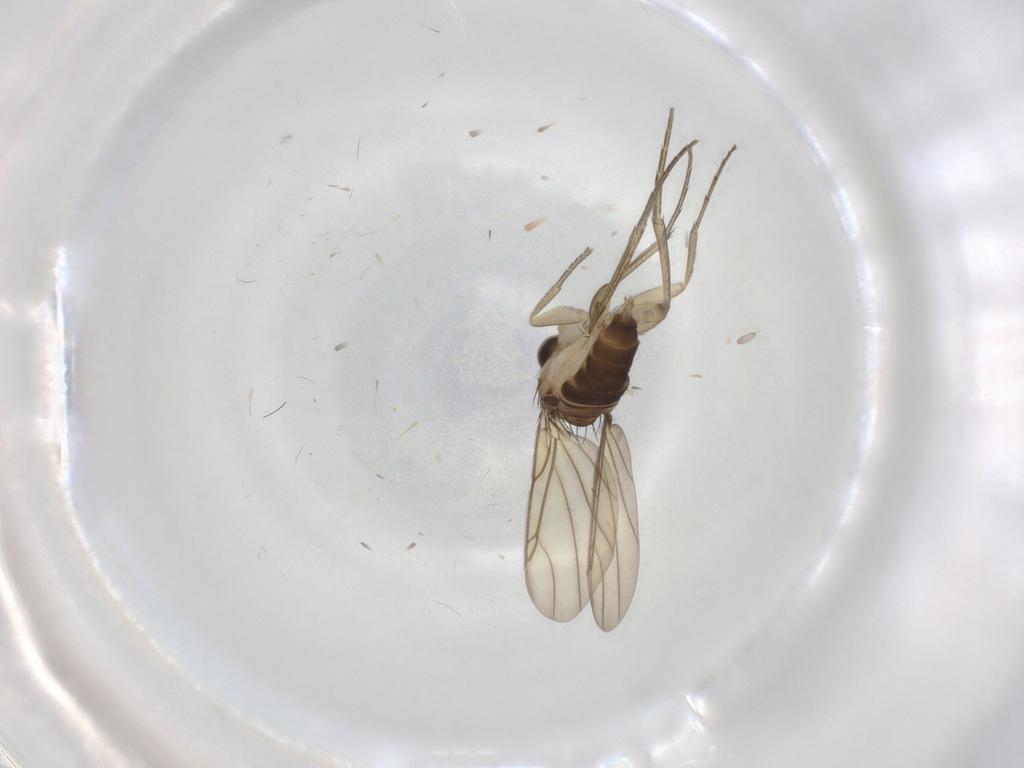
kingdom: Animalia
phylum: Arthropoda
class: Insecta
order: Diptera
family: Phoridae
